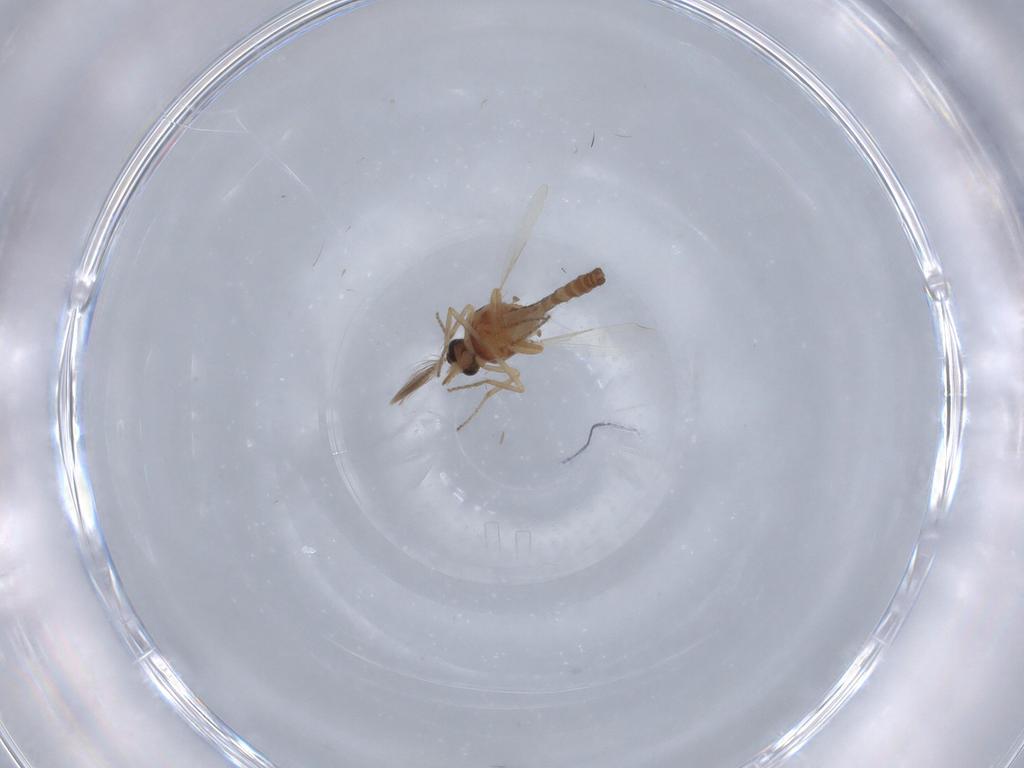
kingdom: Animalia
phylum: Arthropoda
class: Insecta
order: Diptera
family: Ceratopogonidae
